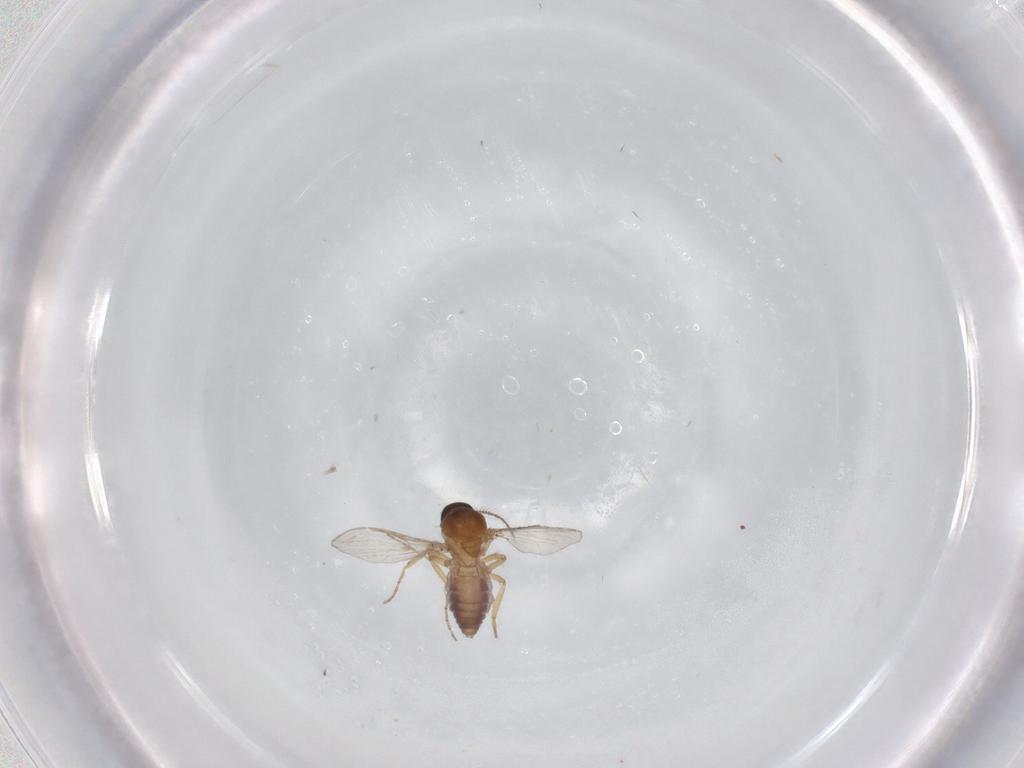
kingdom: Animalia
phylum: Arthropoda
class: Insecta
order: Diptera
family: Ceratopogonidae
